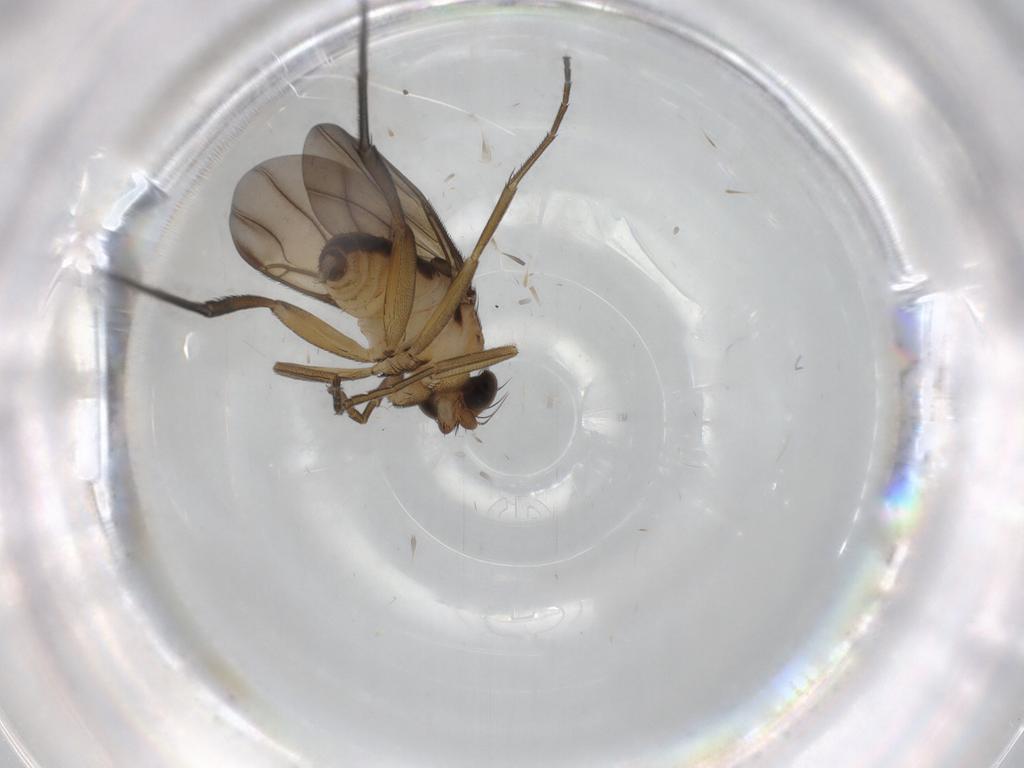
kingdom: Animalia
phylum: Arthropoda
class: Insecta
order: Diptera
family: Phoridae
